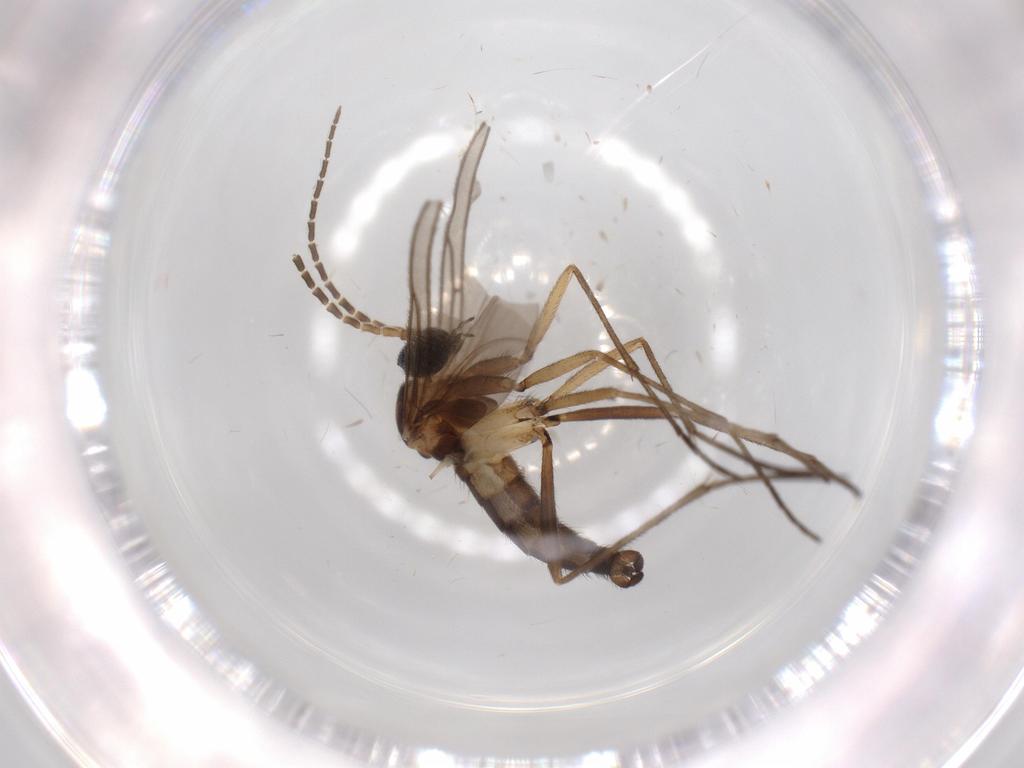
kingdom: Animalia
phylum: Arthropoda
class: Insecta
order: Diptera
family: Sciaridae
